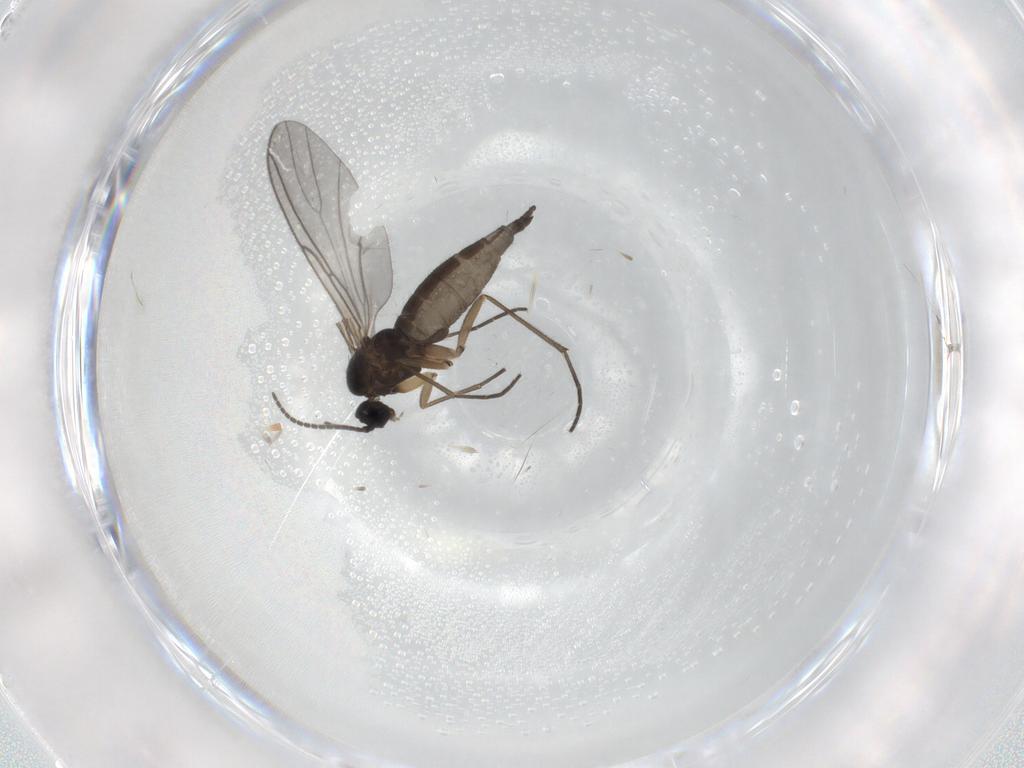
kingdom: Animalia
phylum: Arthropoda
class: Insecta
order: Diptera
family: Sciaridae
